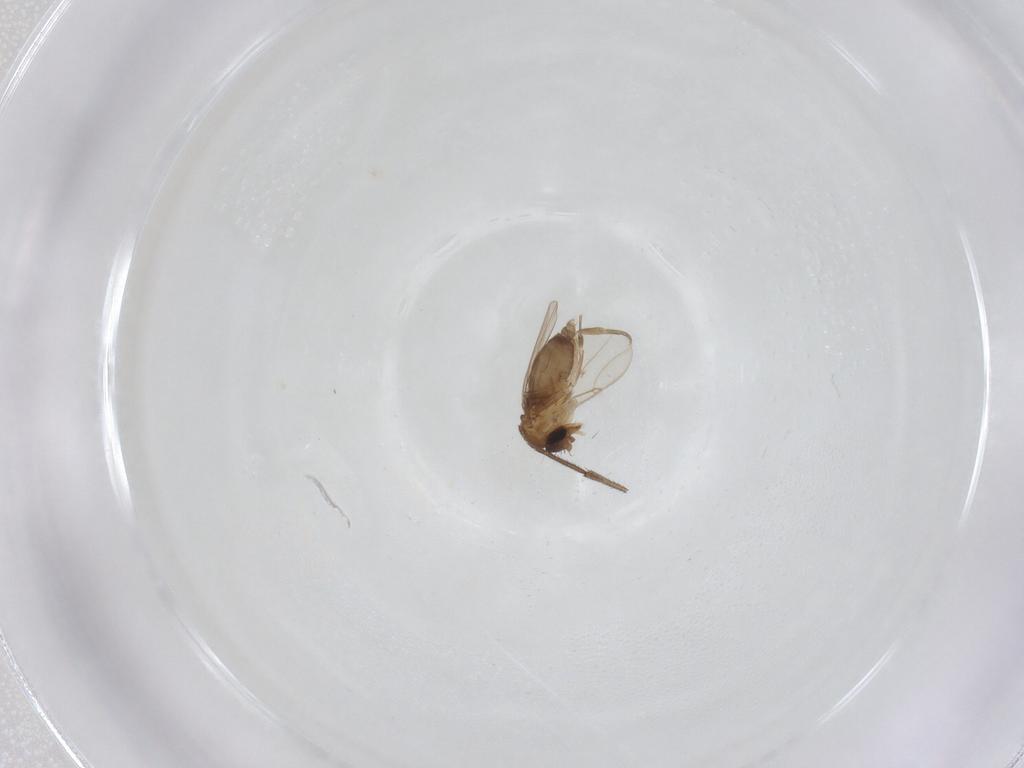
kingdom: Animalia
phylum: Arthropoda
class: Insecta
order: Diptera
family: Sciaridae
